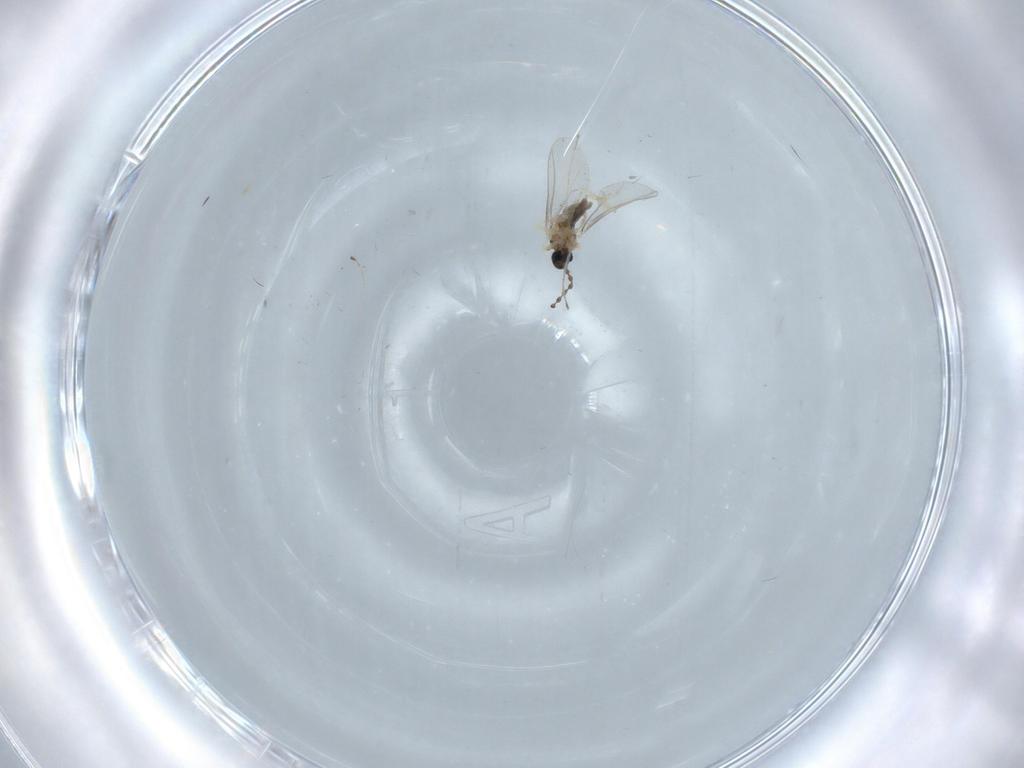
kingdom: Animalia
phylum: Arthropoda
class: Insecta
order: Diptera
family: Cecidomyiidae
